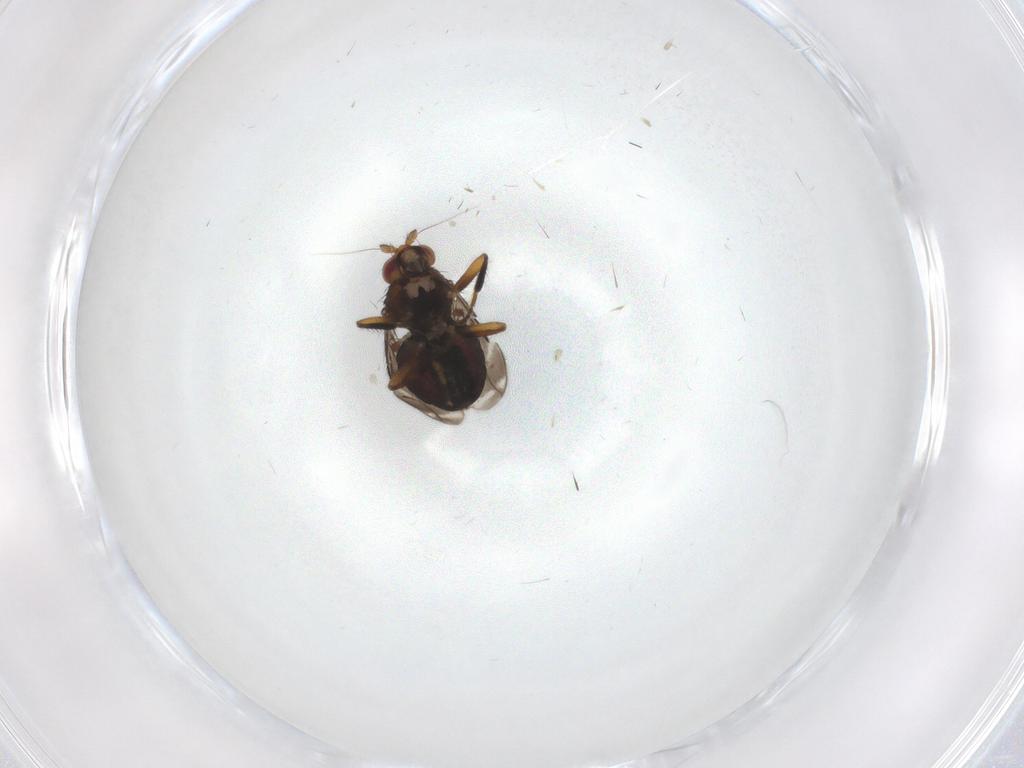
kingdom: Animalia
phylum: Arthropoda
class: Insecta
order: Diptera
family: Sphaeroceridae
